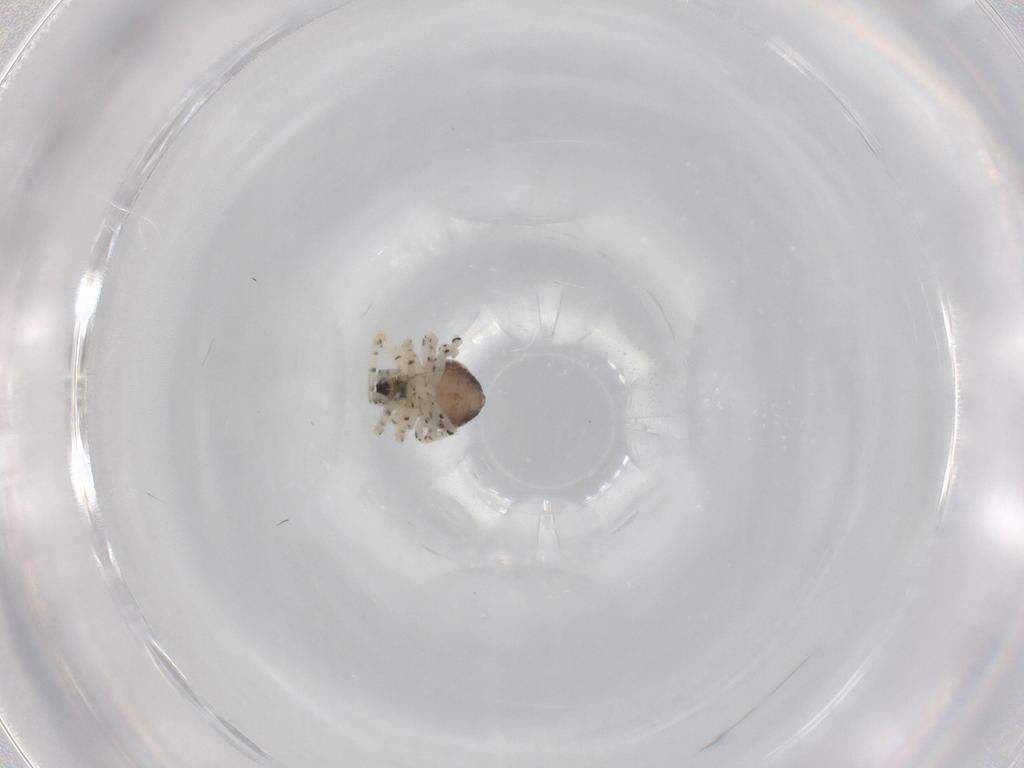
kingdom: Animalia
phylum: Arthropoda
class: Arachnida
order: Araneae
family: Theridiidae
